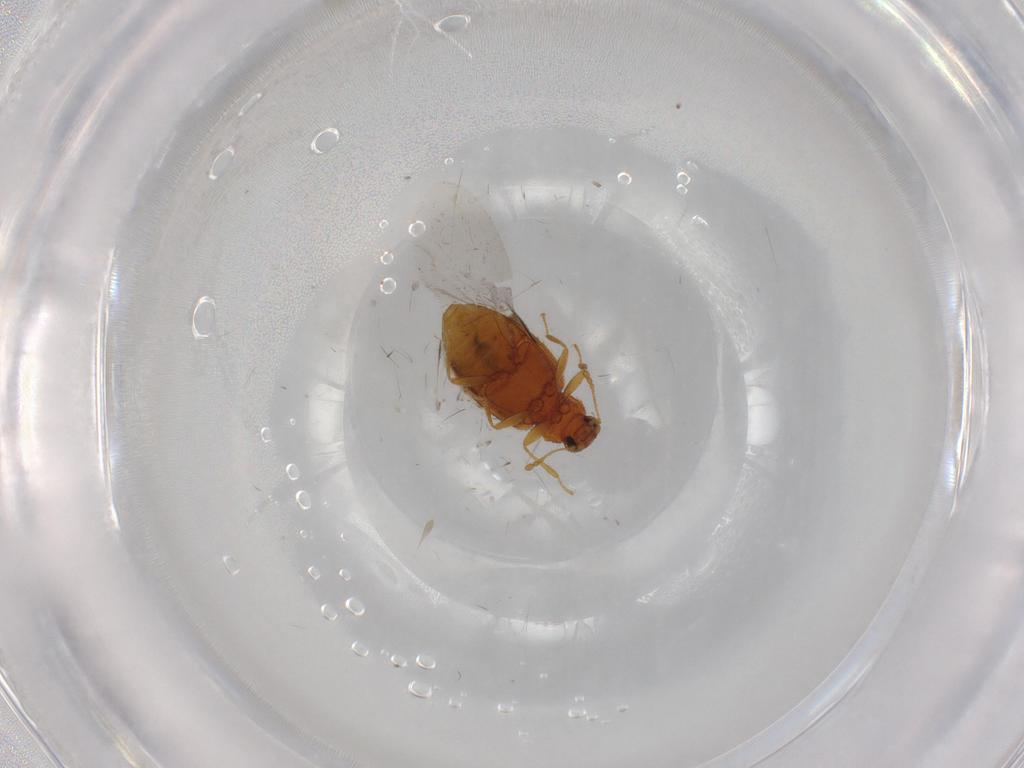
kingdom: Animalia
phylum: Arthropoda
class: Insecta
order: Coleoptera
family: Latridiidae
